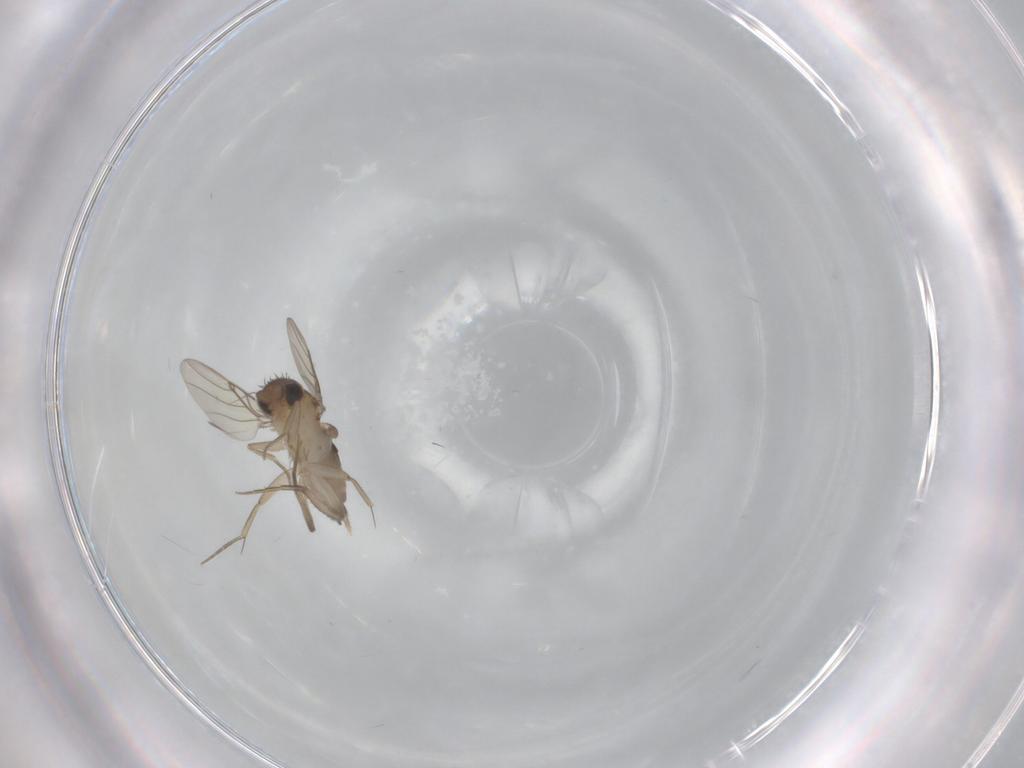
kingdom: Animalia
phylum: Arthropoda
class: Insecta
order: Diptera
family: Phoridae
